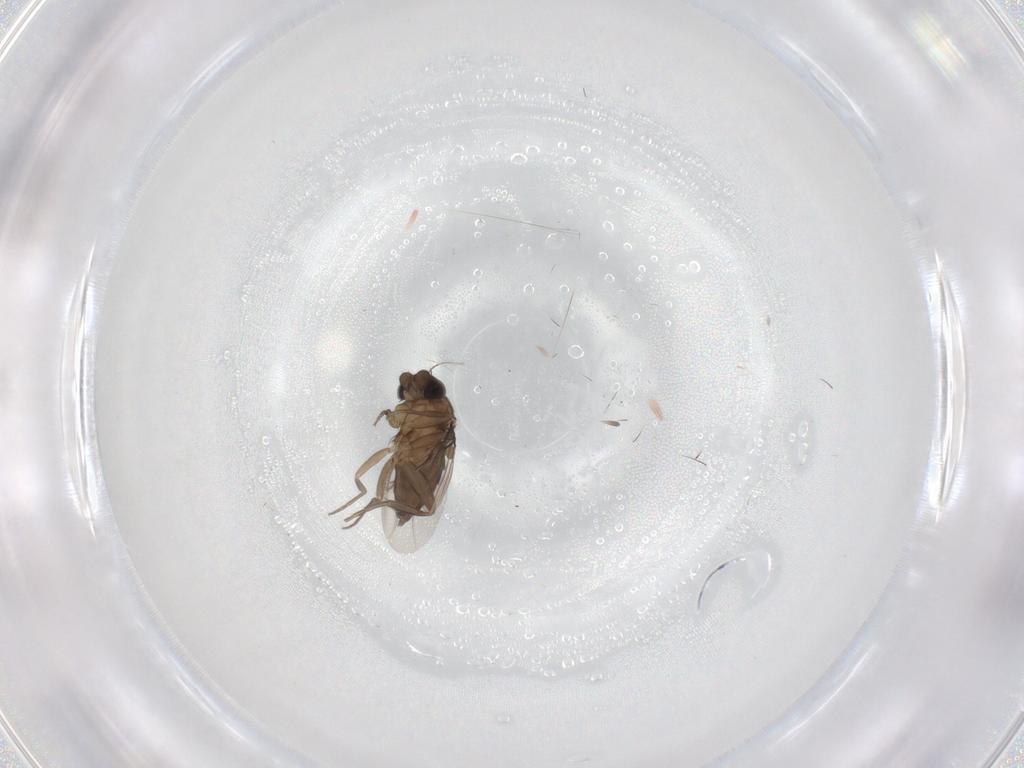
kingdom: Animalia
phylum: Arthropoda
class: Insecta
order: Diptera
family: Phoridae
